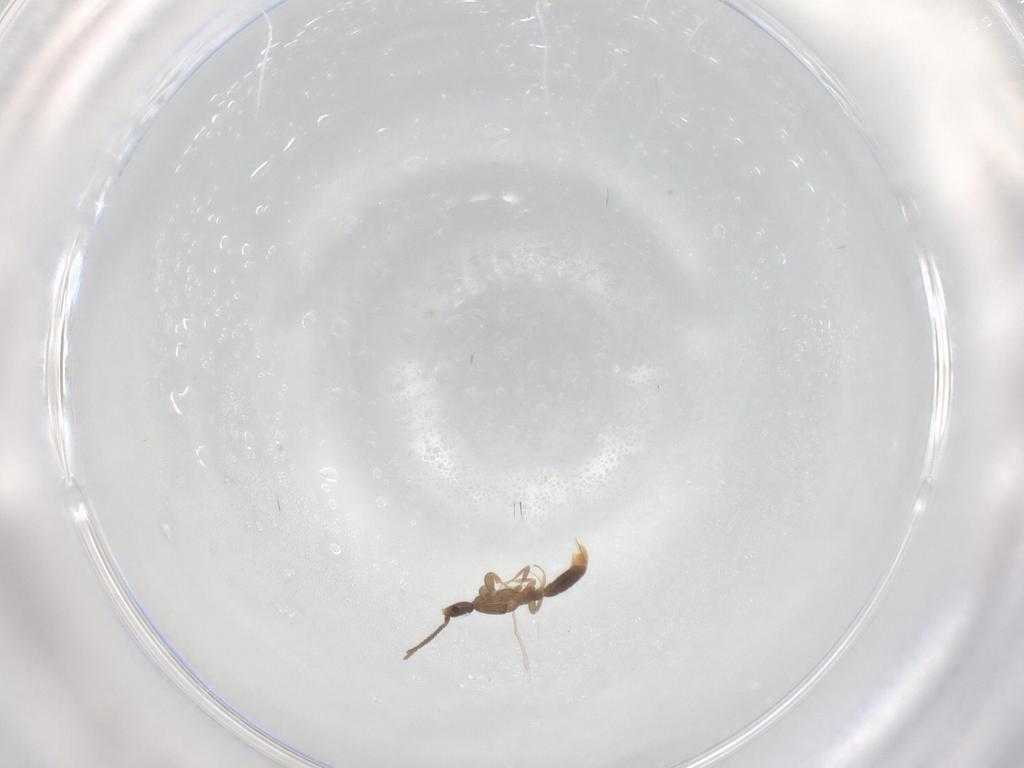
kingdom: Animalia
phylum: Arthropoda
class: Insecta
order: Hymenoptera
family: Formicidae
